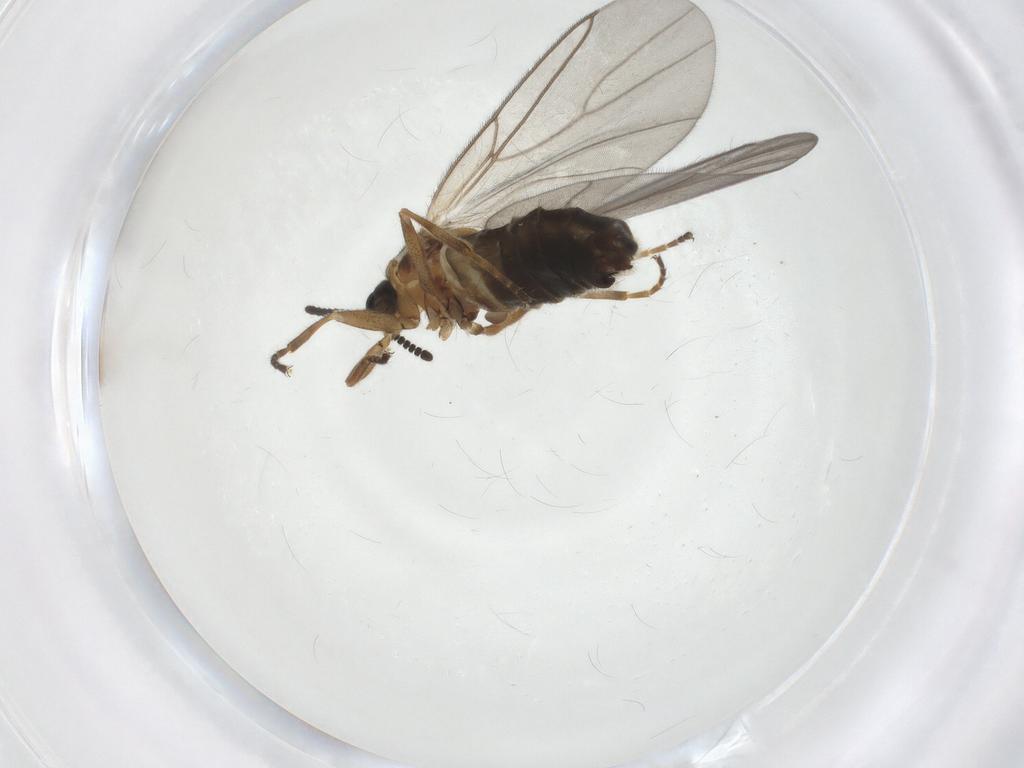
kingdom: Animalia
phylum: Arthropoda
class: Insecta
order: Diptera
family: Scatopsidae
